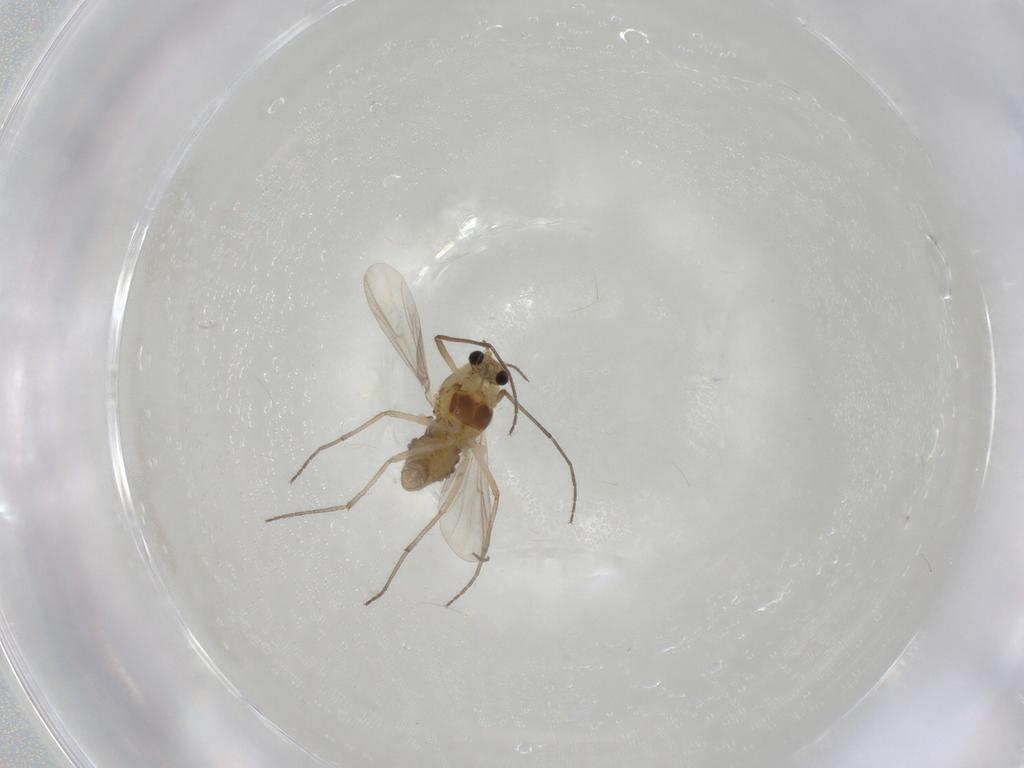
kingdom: Animalia
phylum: Arthropoda
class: Insecta
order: Diptera
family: Chironomidae
